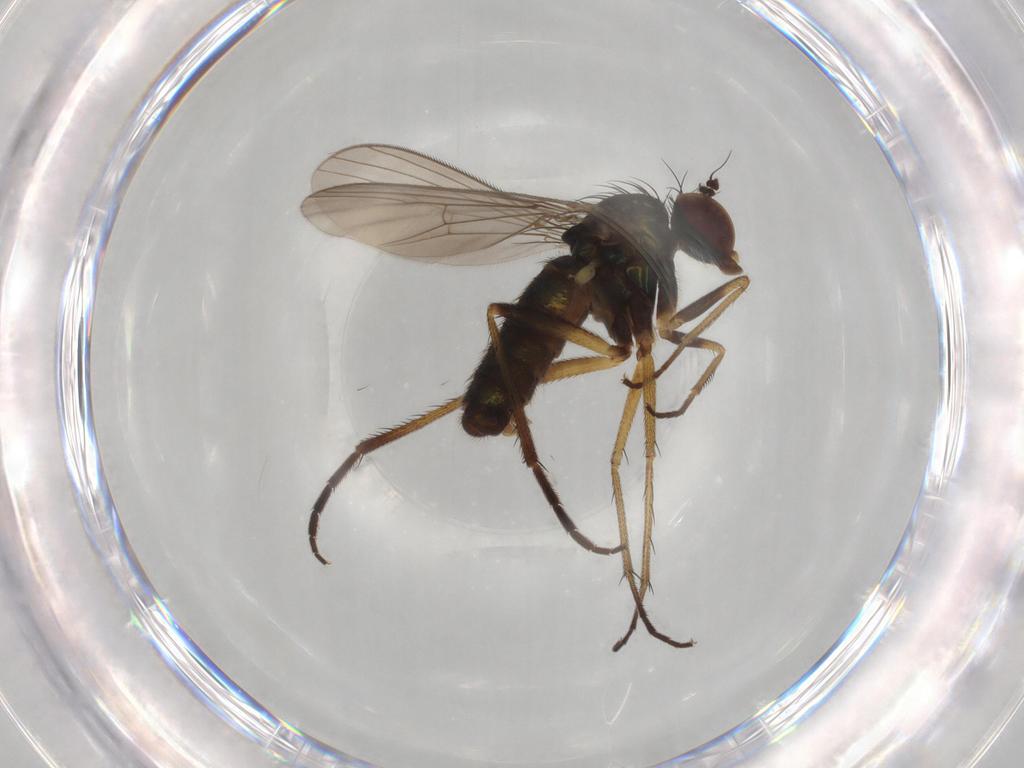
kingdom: Animalia
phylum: Arthropoda
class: Insecta
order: Diptera
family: Dolichopodidae
